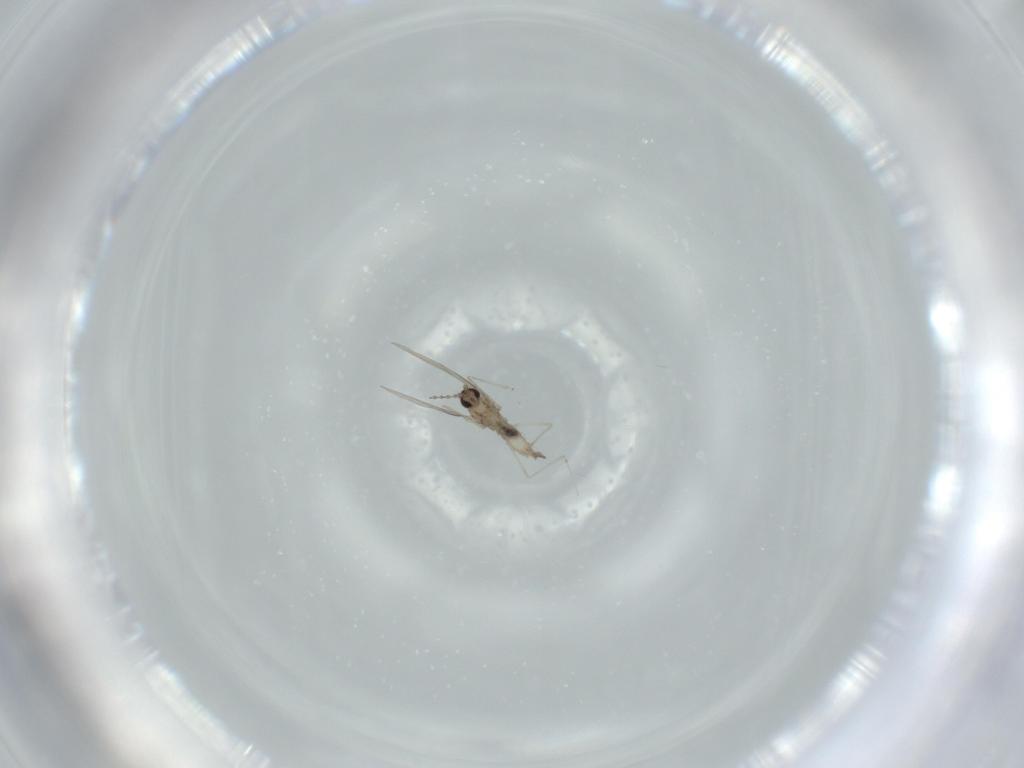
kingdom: Animalia
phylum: Arthropoda
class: Insecta
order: Diptera
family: Cecidomyiidae
